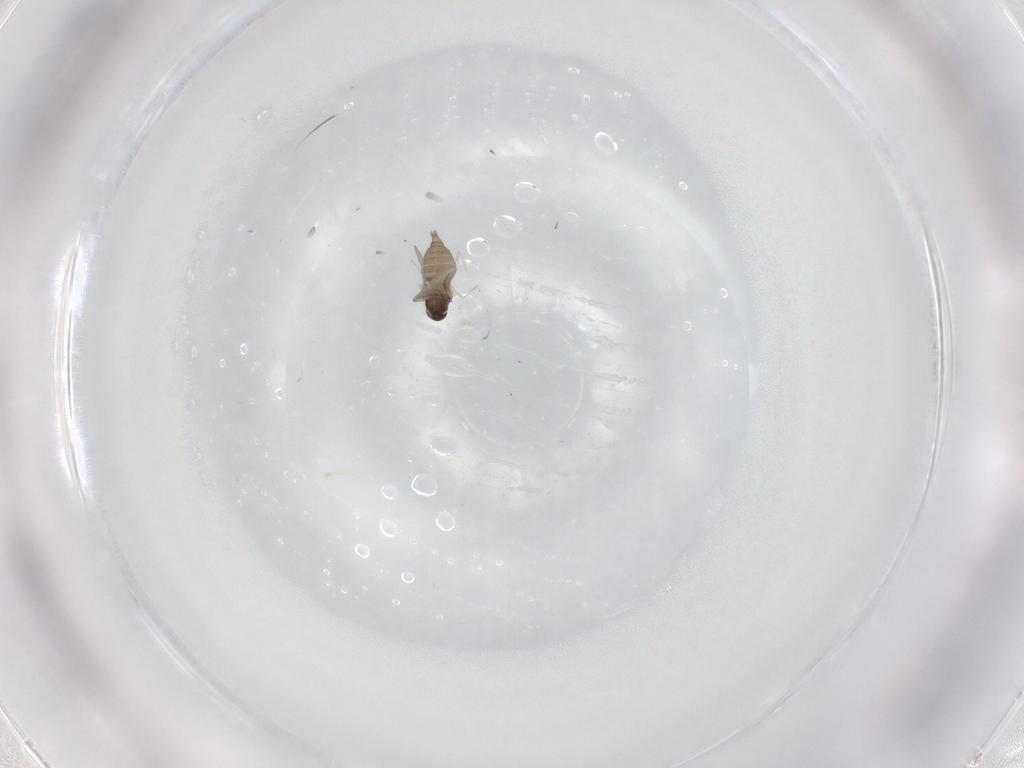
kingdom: Animalia
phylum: Arthropoda
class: Insecta
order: Diptera
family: Cecidomyiidae
